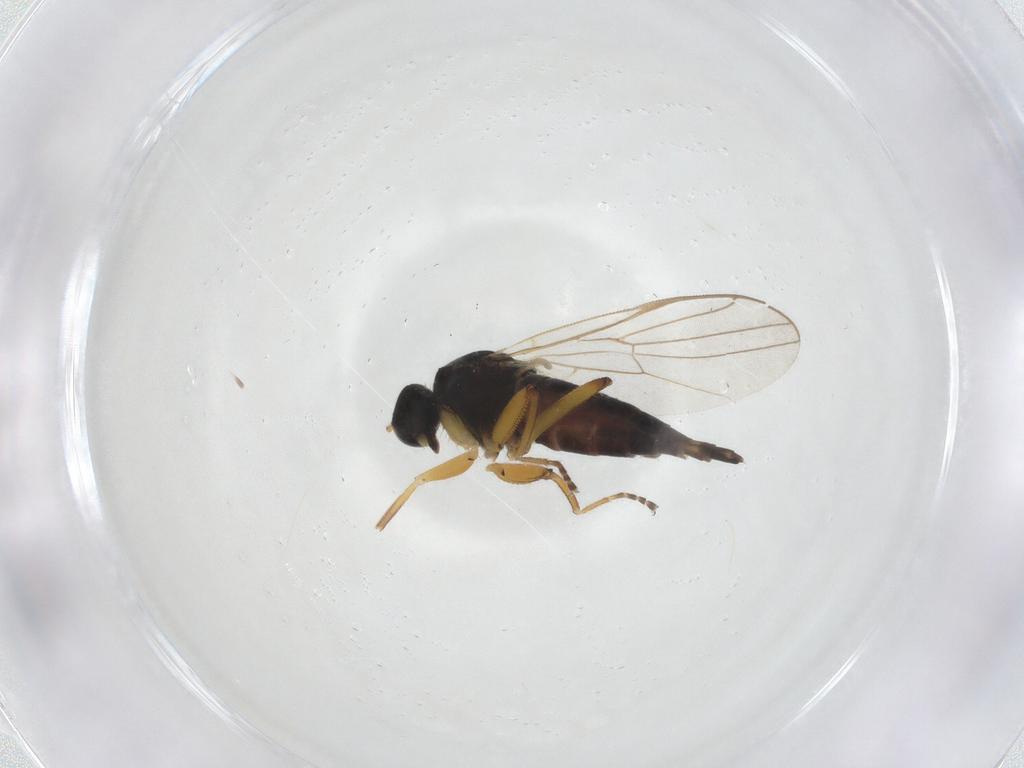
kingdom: Animalia
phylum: Arthropoda
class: Insecta
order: Diptera
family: Hybotidae
